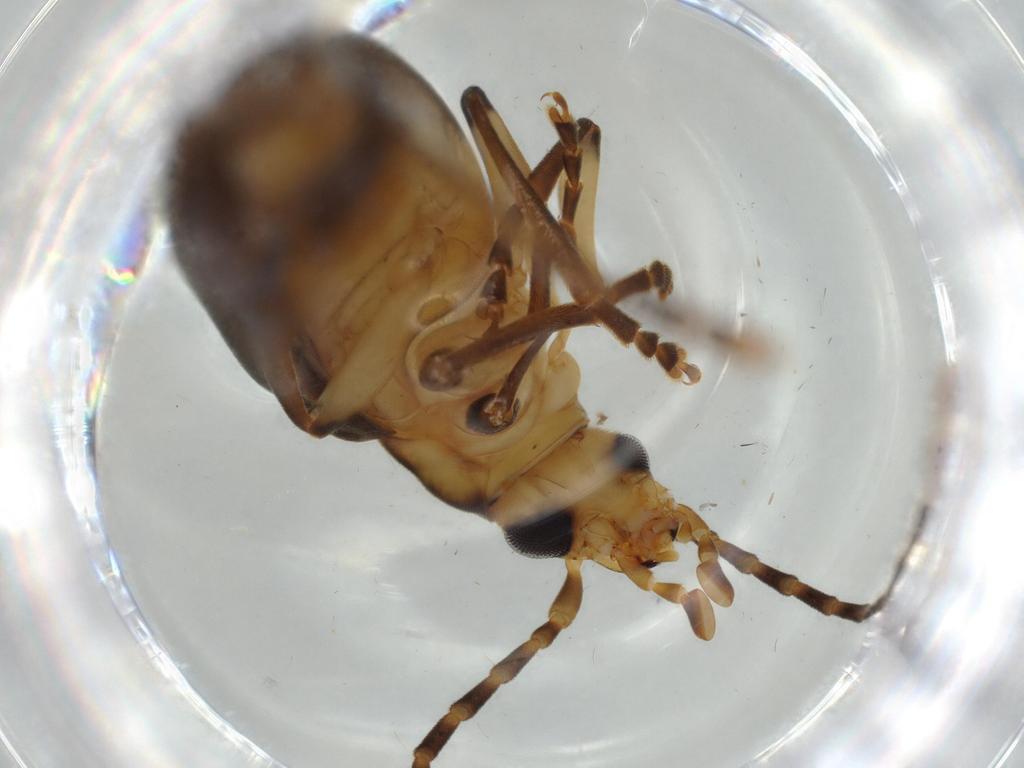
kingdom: Animalia
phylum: Arthropoda
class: Insecta
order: Coleoptera
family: Oedemeridae
